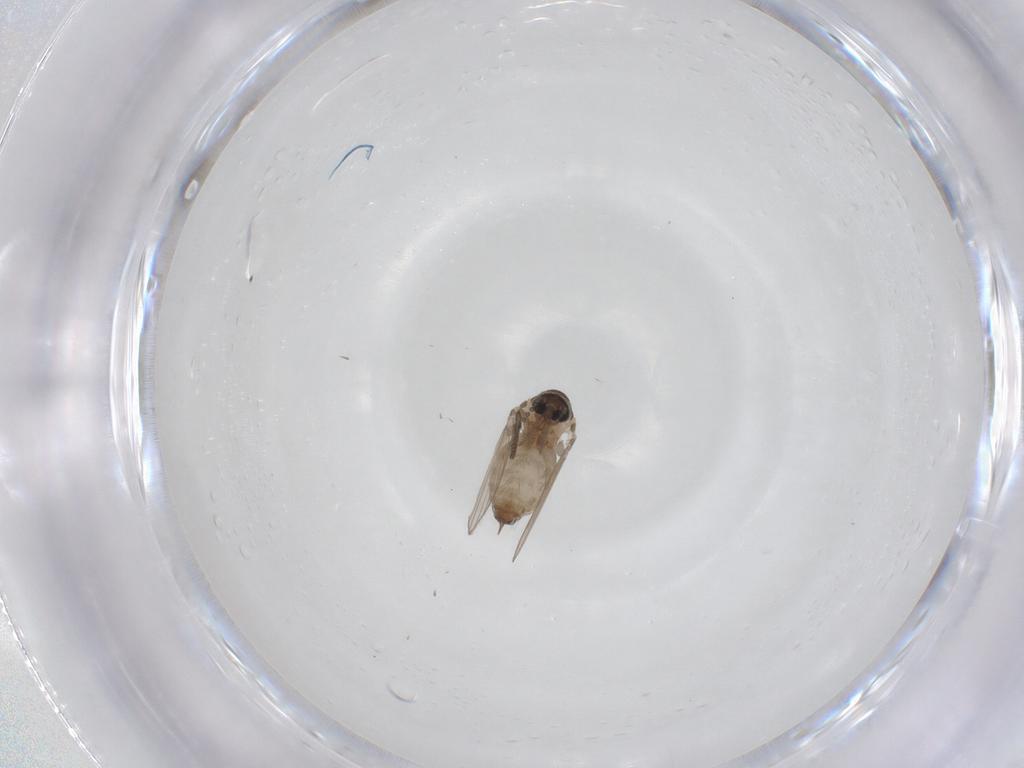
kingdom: Animalia
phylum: Arthropoda
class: Insecta
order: Diptera
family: Psychodidae
